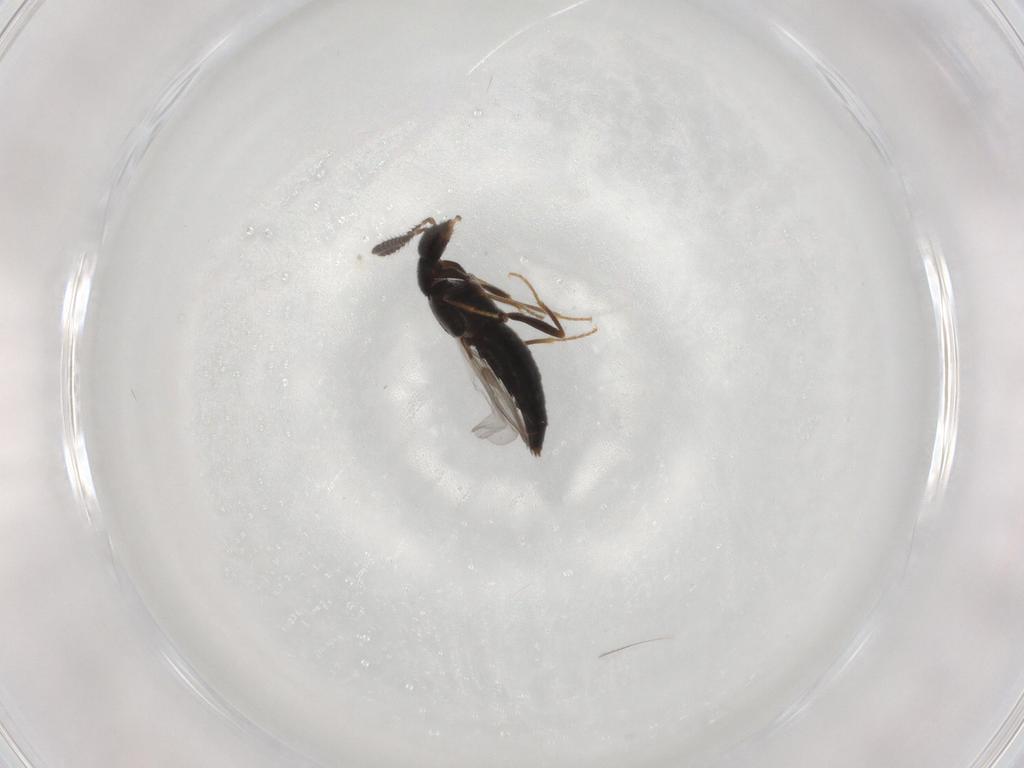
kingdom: Animalia
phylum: Arthropoda
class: Insecta
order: Coleoptera
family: Staphylinidae
